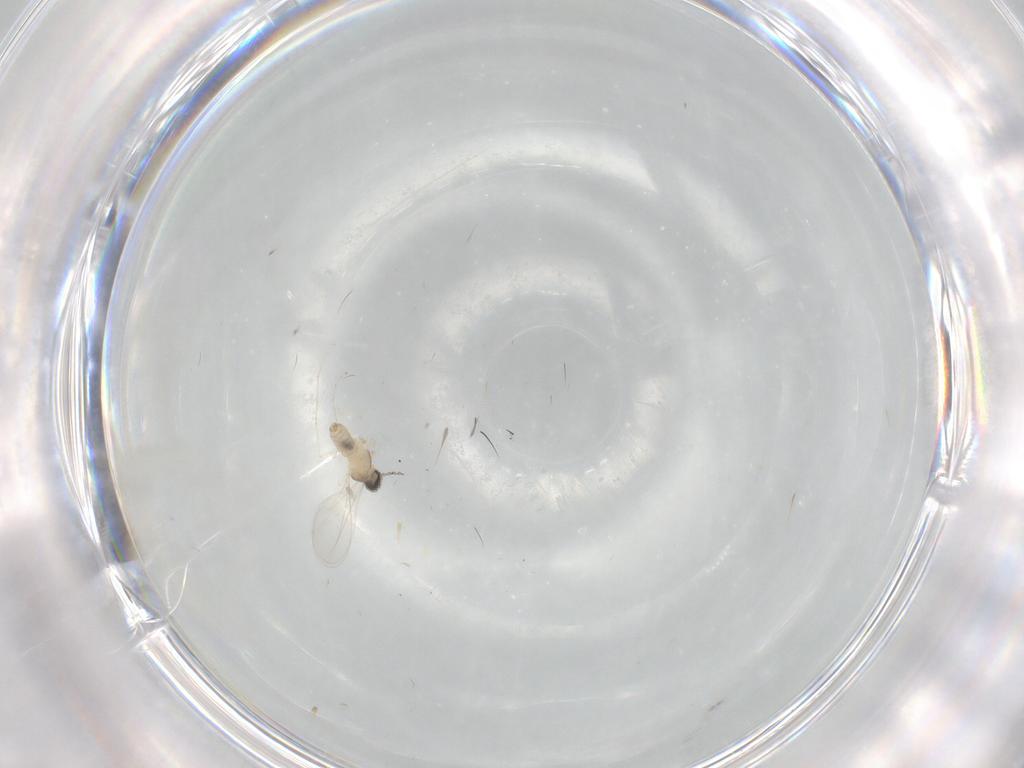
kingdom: Animalia
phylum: Arthropoda
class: Insecta
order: Diptera
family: Cecidomyiidae
